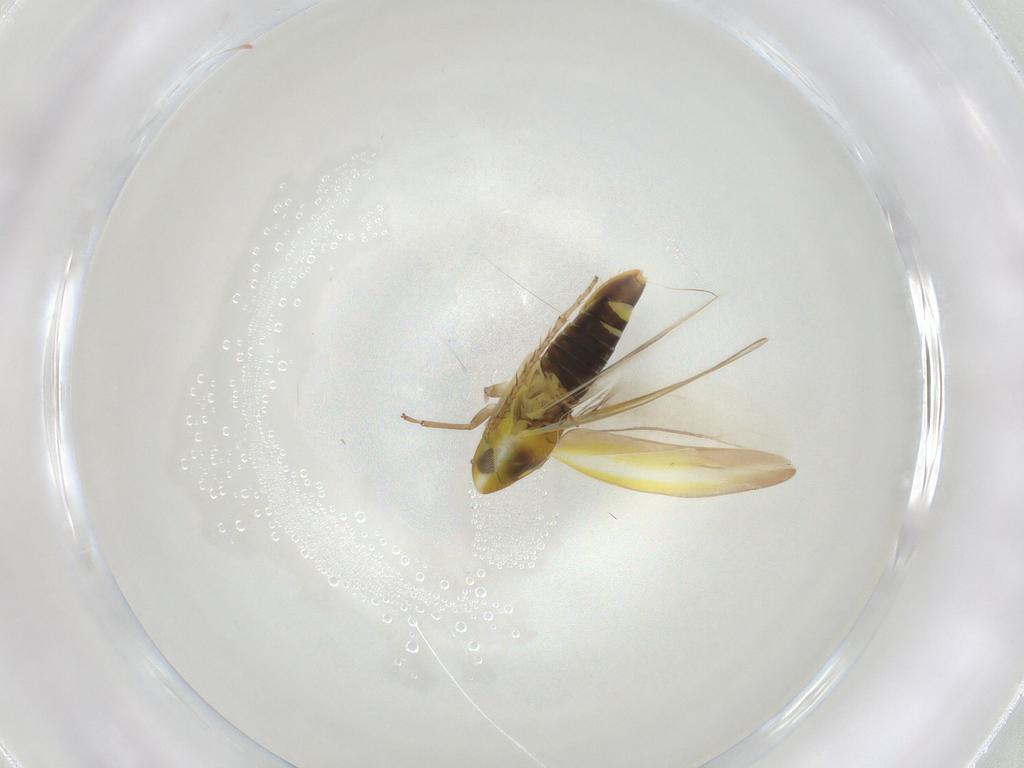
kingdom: Animalia
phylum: Arthropoda
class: Insecta
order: Hemiptera
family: Cicadellidae
